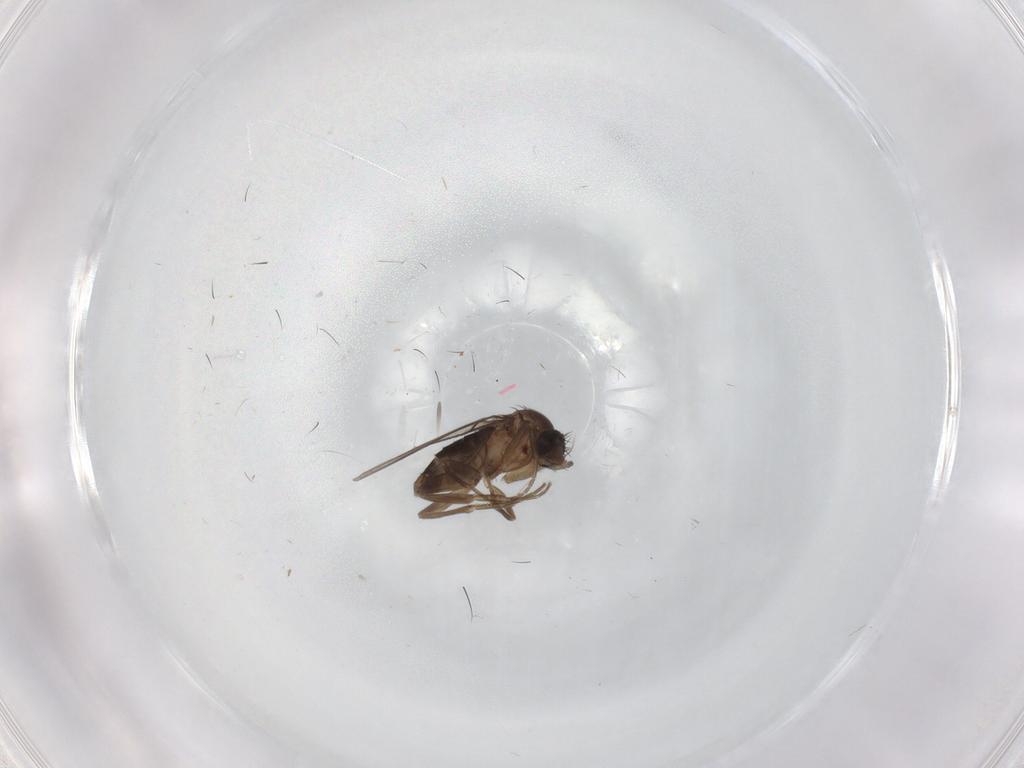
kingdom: Animalia
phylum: Arthropoda
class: Insecta
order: Diptera
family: Phoridae
